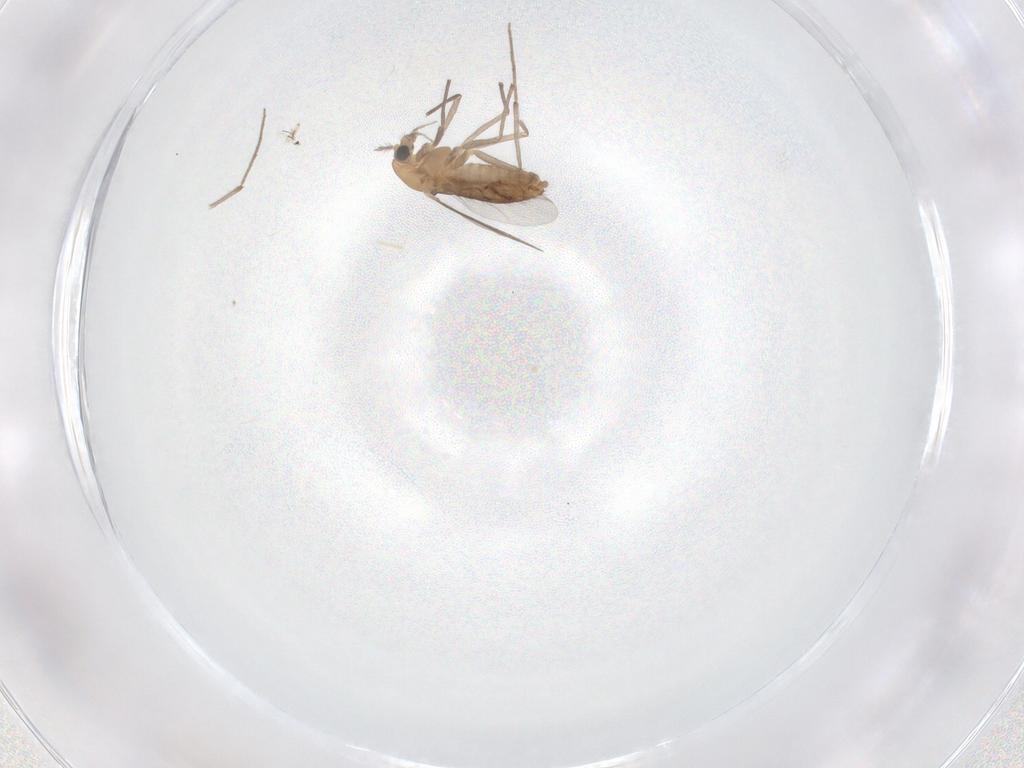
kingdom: Animalia
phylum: Arthropoda
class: Insecta
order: Diptera
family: Chironomidae
